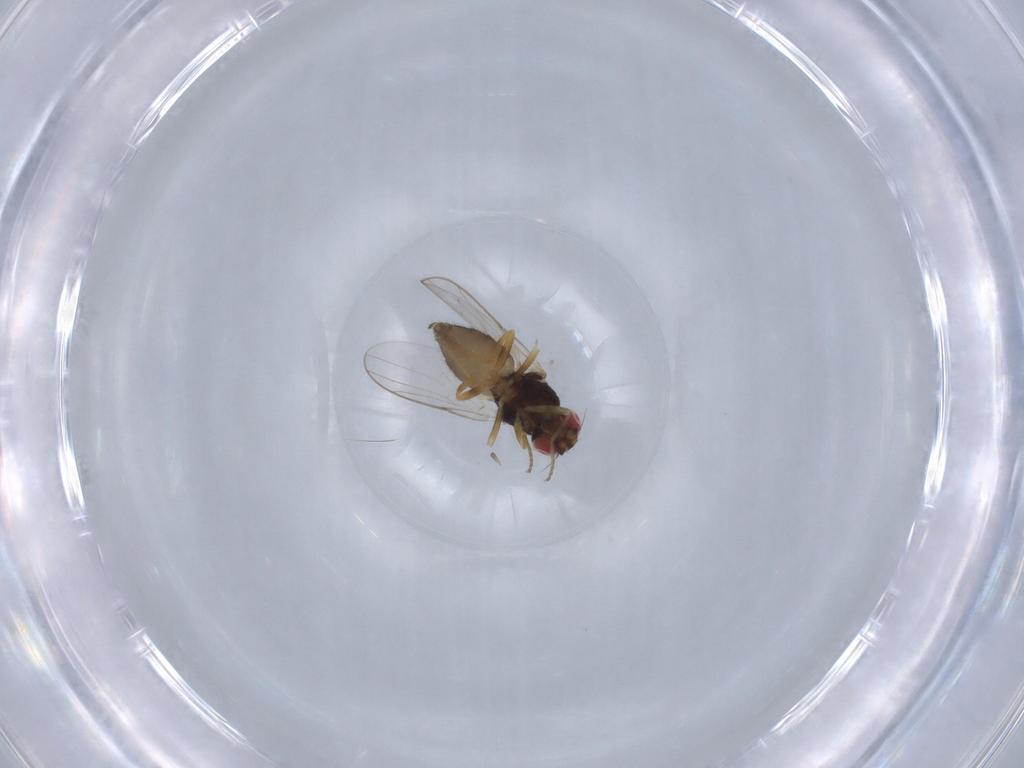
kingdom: Animalia
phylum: Arthropoda
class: Insecta
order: Diptera
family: Chloropidae
